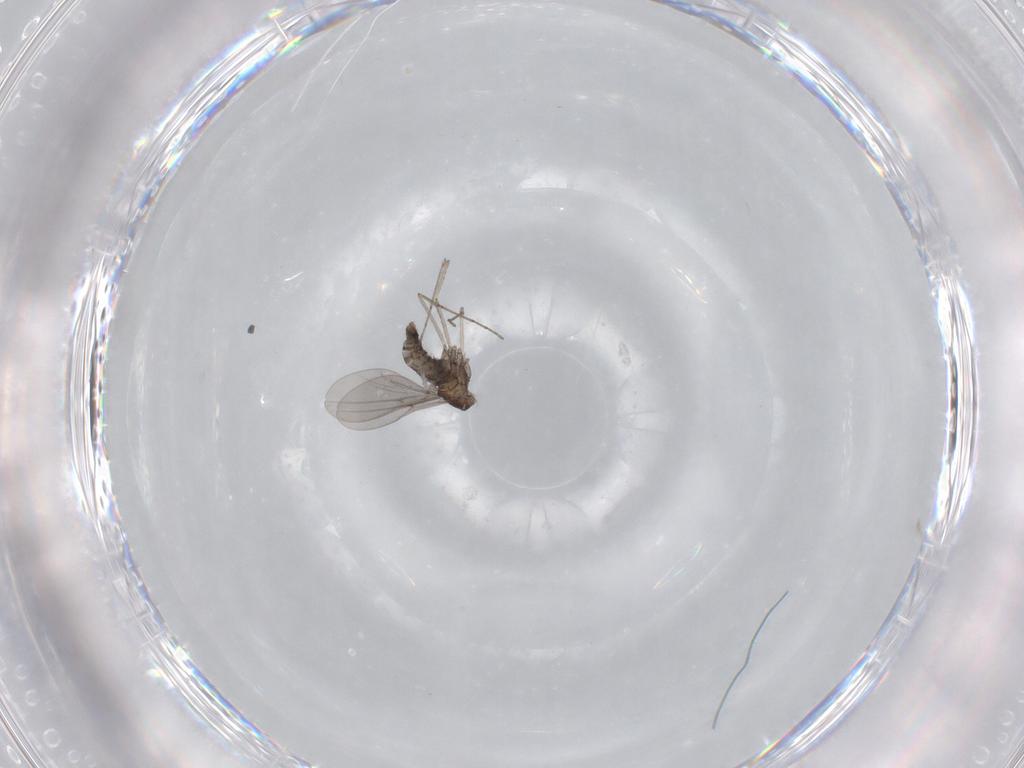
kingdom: Animalia
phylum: Arthropoda
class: Insecta
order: Diptera
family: Cecidomyiidae
